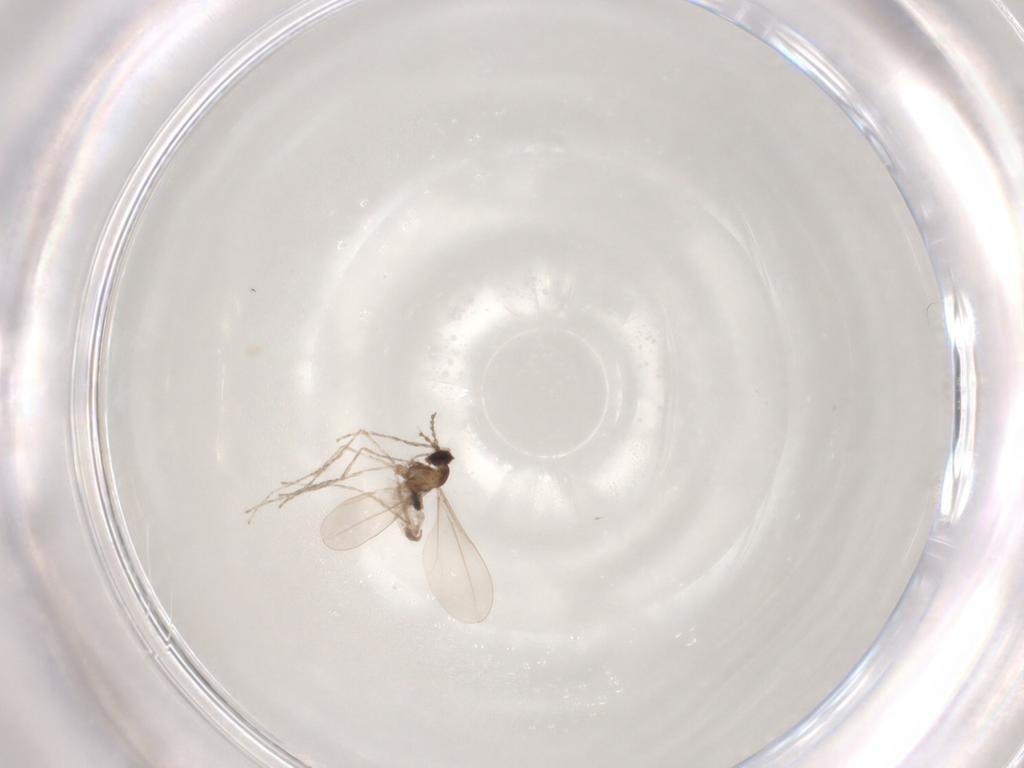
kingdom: Animalia
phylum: Arthropoda
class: Insecta
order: Diptera
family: Cecidomyiidae
